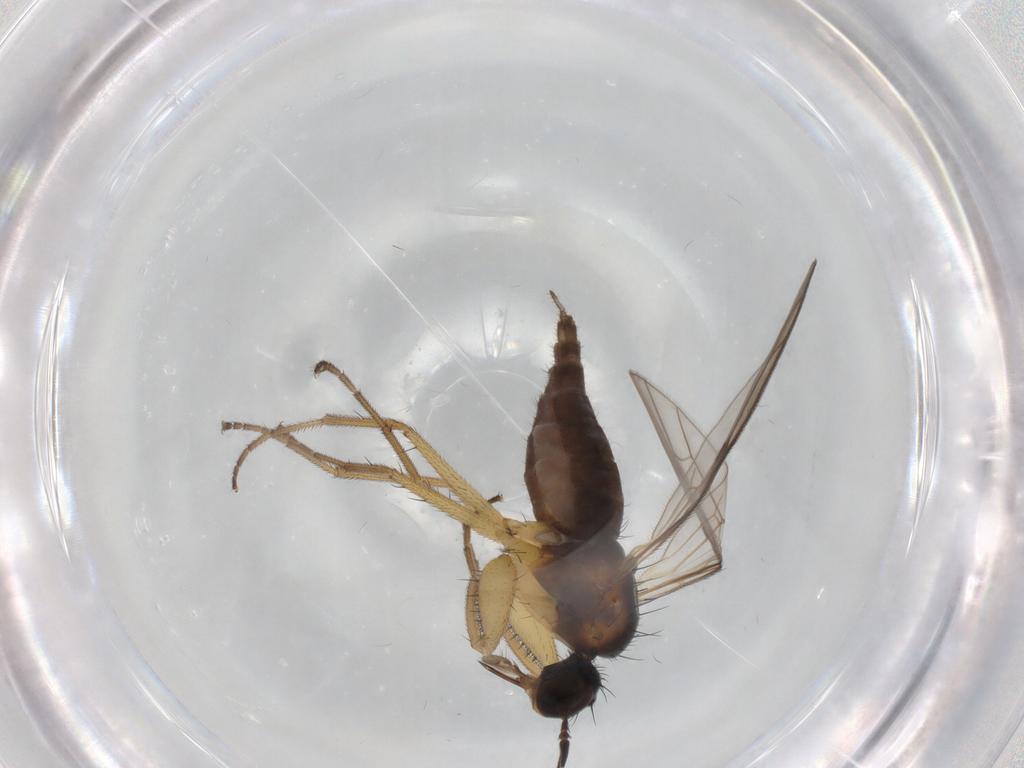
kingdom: Animalia
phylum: Arthropoda
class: Insecta
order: Diptera
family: Chironomidae
